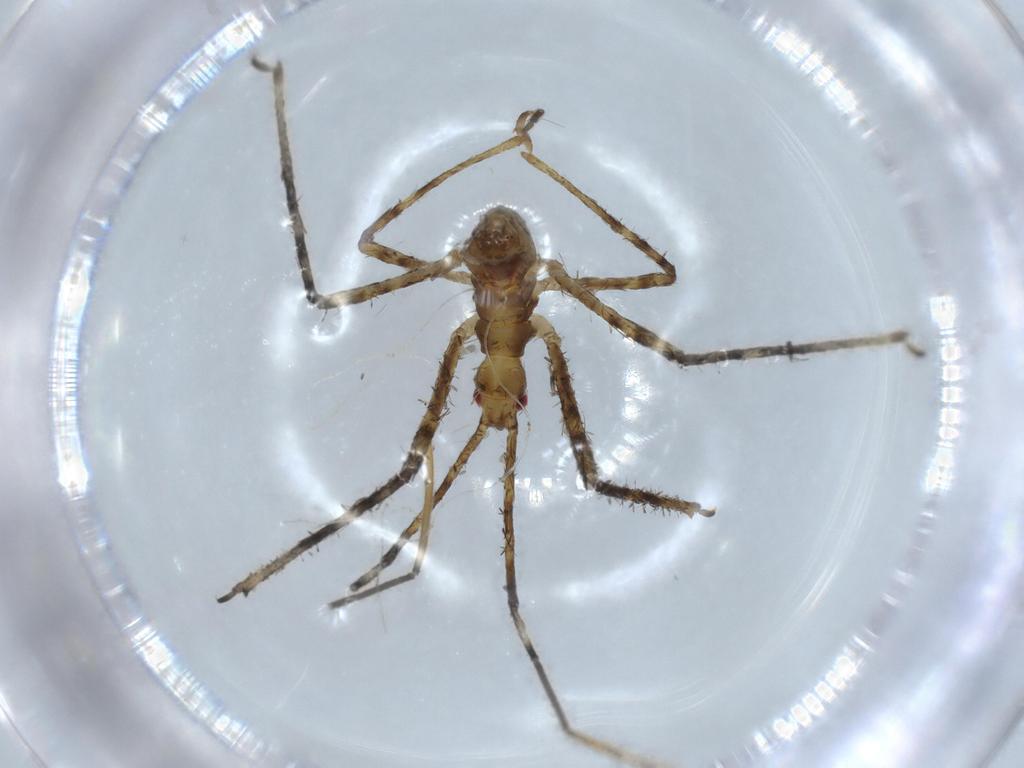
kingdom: Animalia
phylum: Arthropoda
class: Insecta
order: Hemiptera
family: Reduviidae
